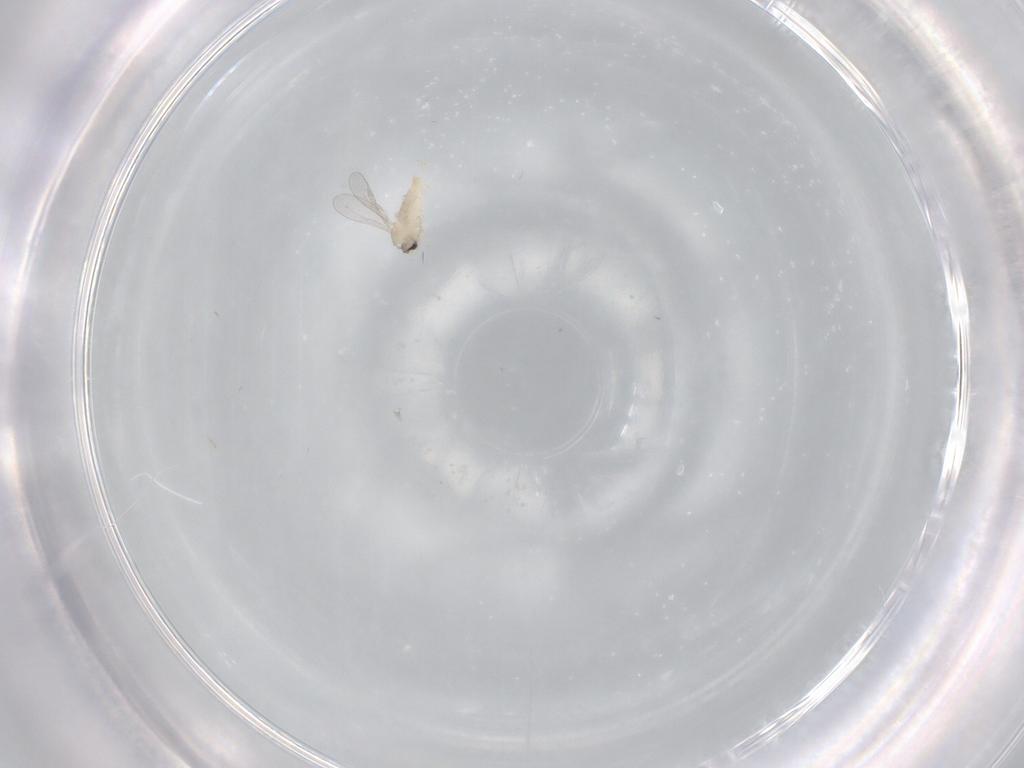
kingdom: Animalia
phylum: Arthropoda
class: Insecta
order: Diptera
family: Cecidomyiidae
